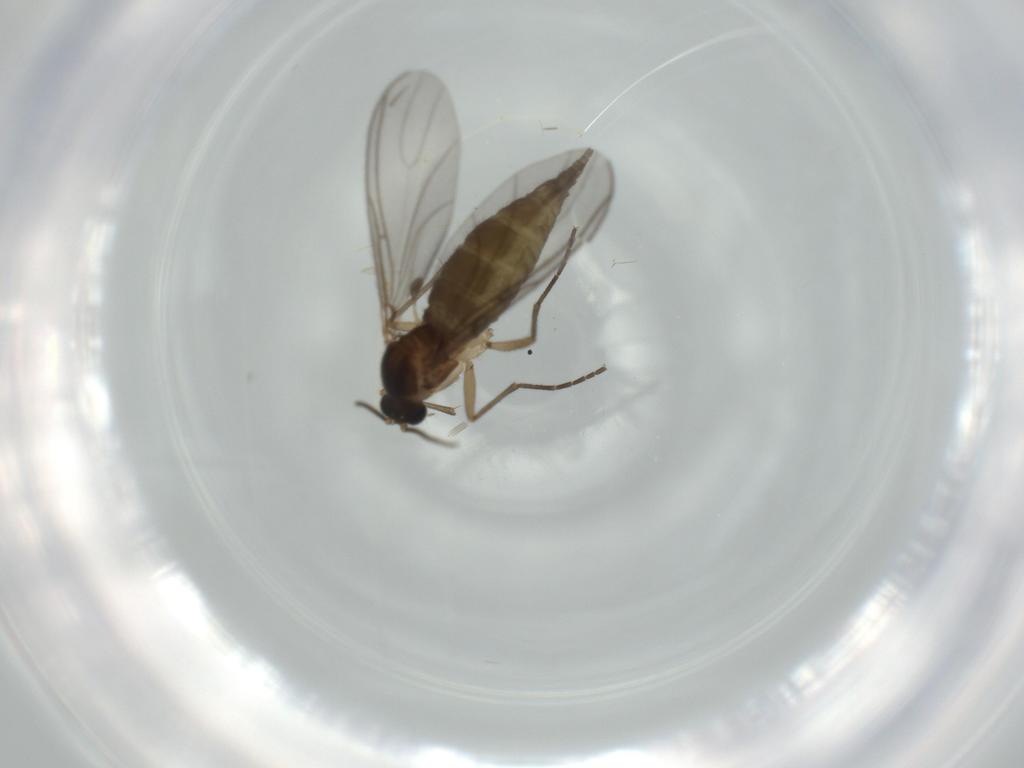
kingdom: Animalia
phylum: Arthropoda
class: Insecta
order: Diptera
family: Sciaridae
